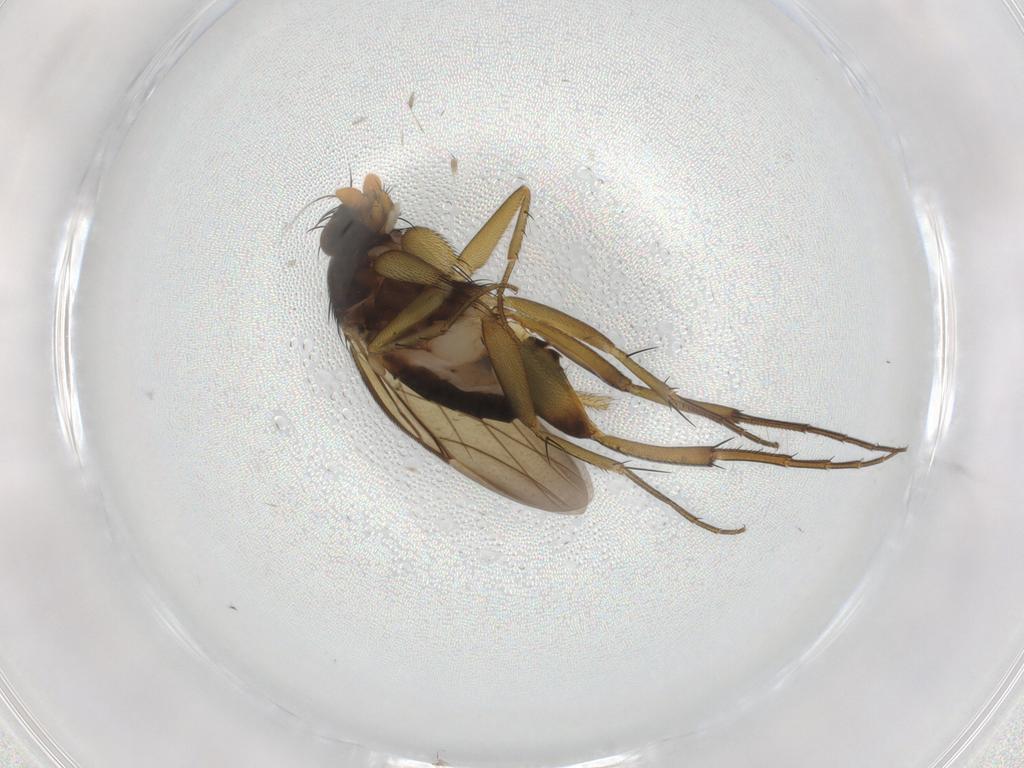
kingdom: Animalia
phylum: Arthropoda
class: Insecta
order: Diptera
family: Phoridae
